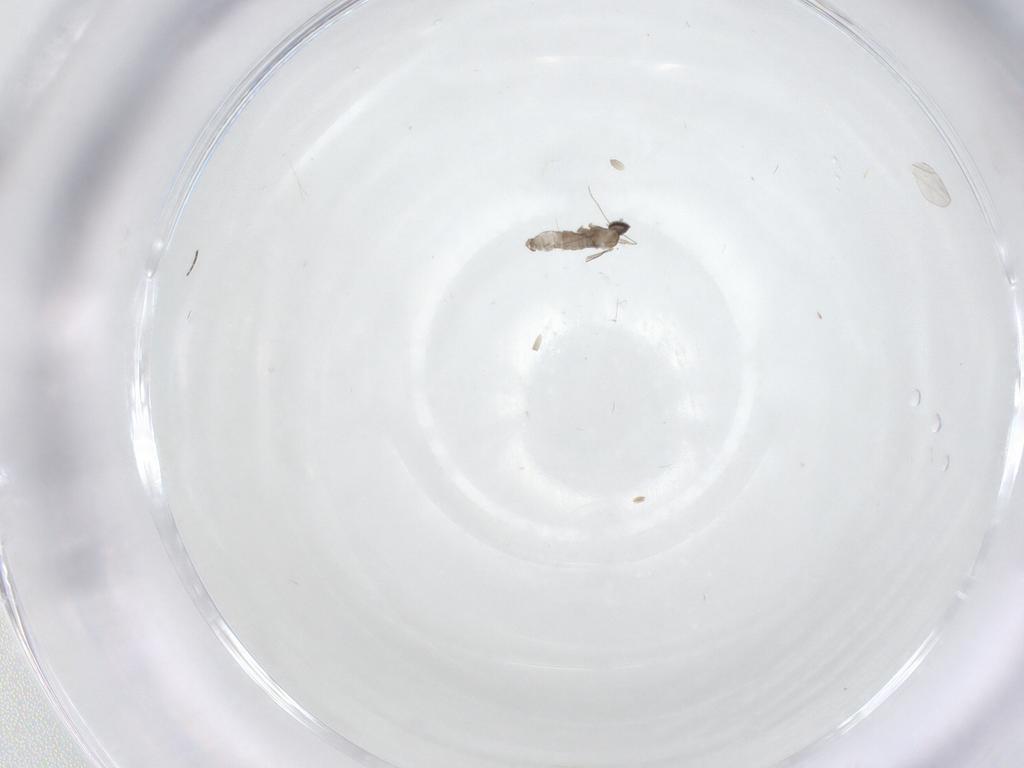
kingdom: Animalia
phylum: Arthropoda
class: Insecta
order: Diptera
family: Cecidomyiidae
